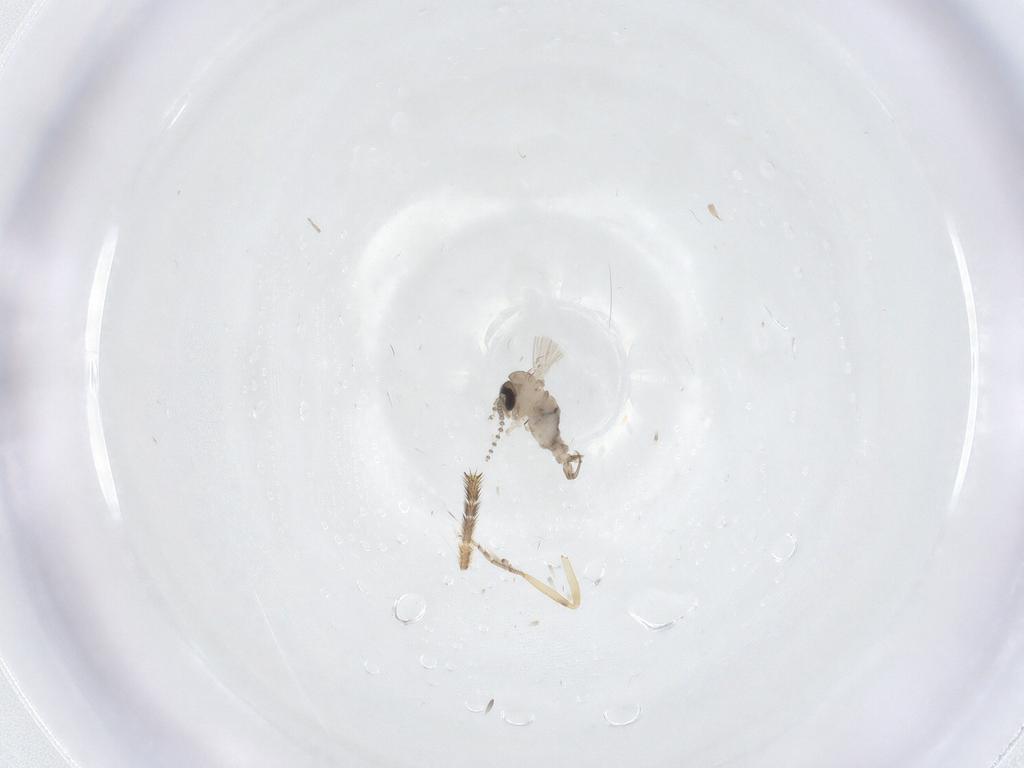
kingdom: Animalia
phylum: Arthropoda
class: Insecta
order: Diptera
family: Psychodidae
